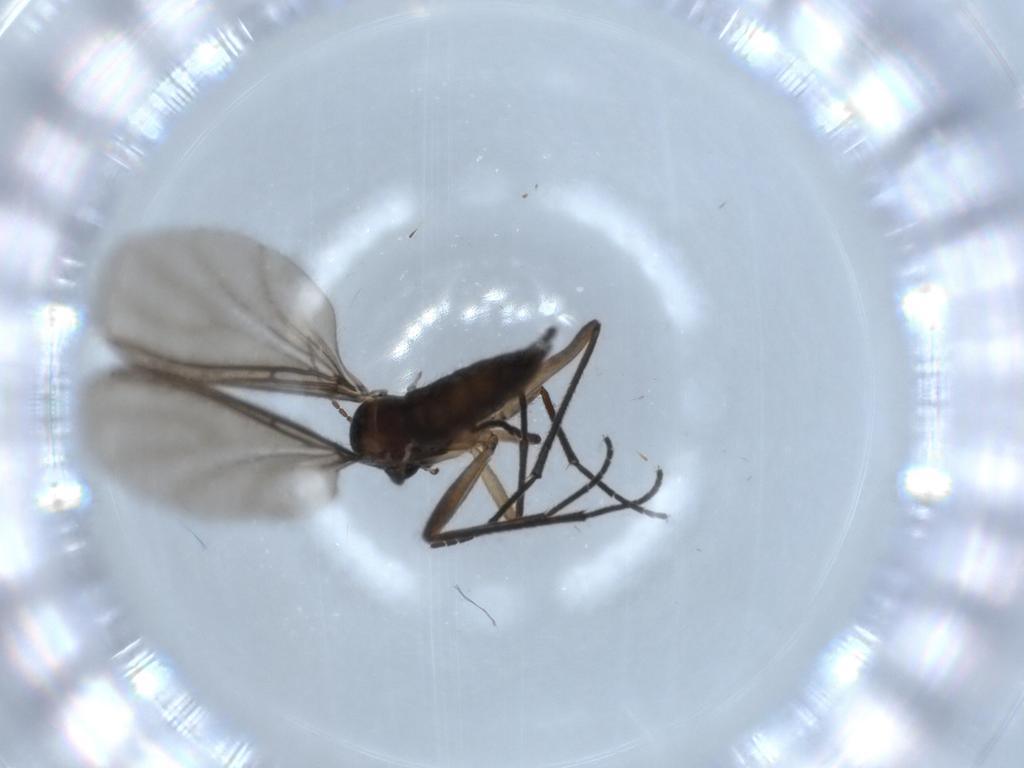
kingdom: Animalia
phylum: Arthropoda
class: Insecta
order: Diptera
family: Sciaridae
